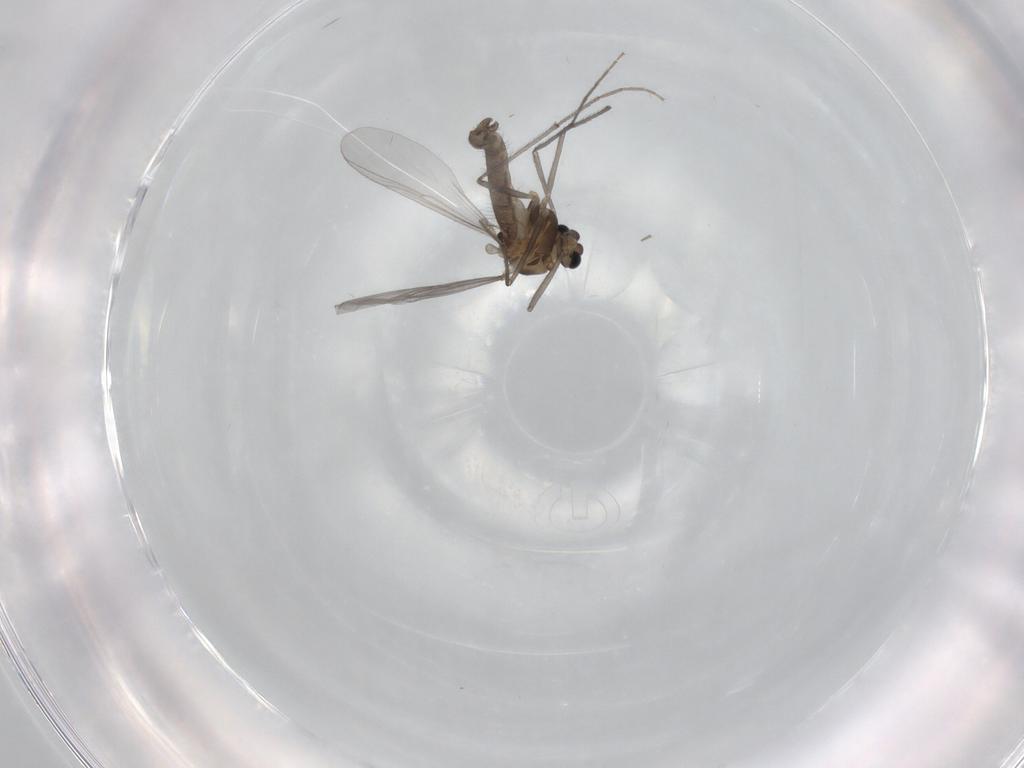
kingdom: Animalia
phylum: Arthropoda
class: Insecta
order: Diptera
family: Chironomidae
